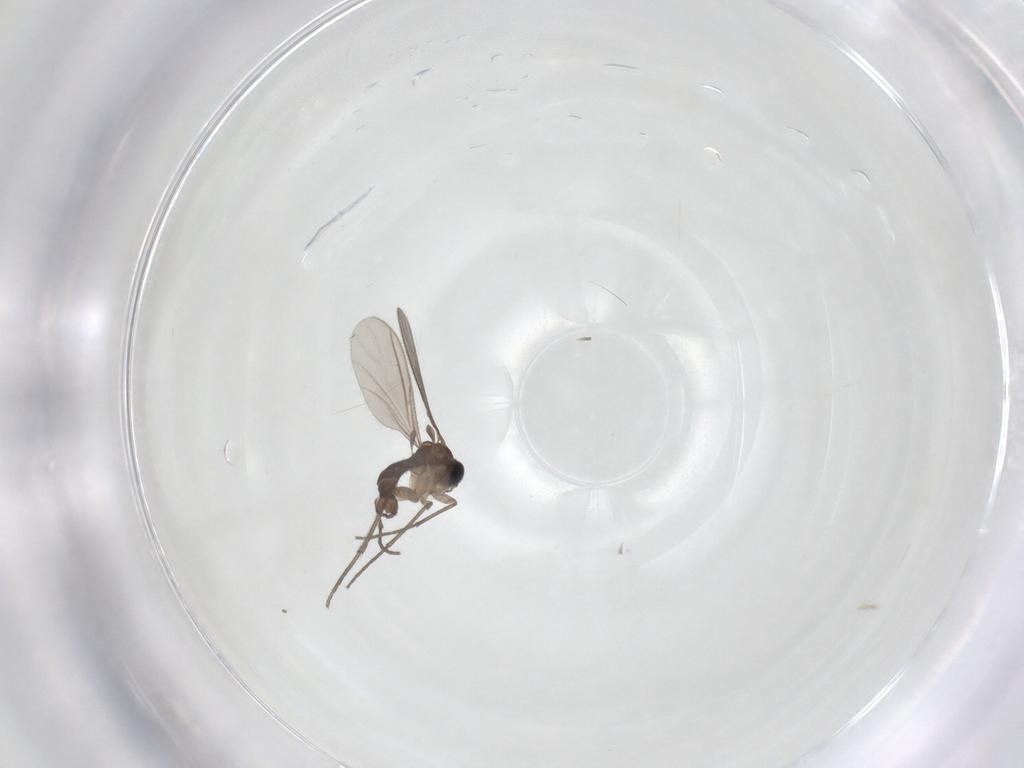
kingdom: Animalia
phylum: Arthropoda
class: Insecta
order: Diptera
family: Sciaridae
